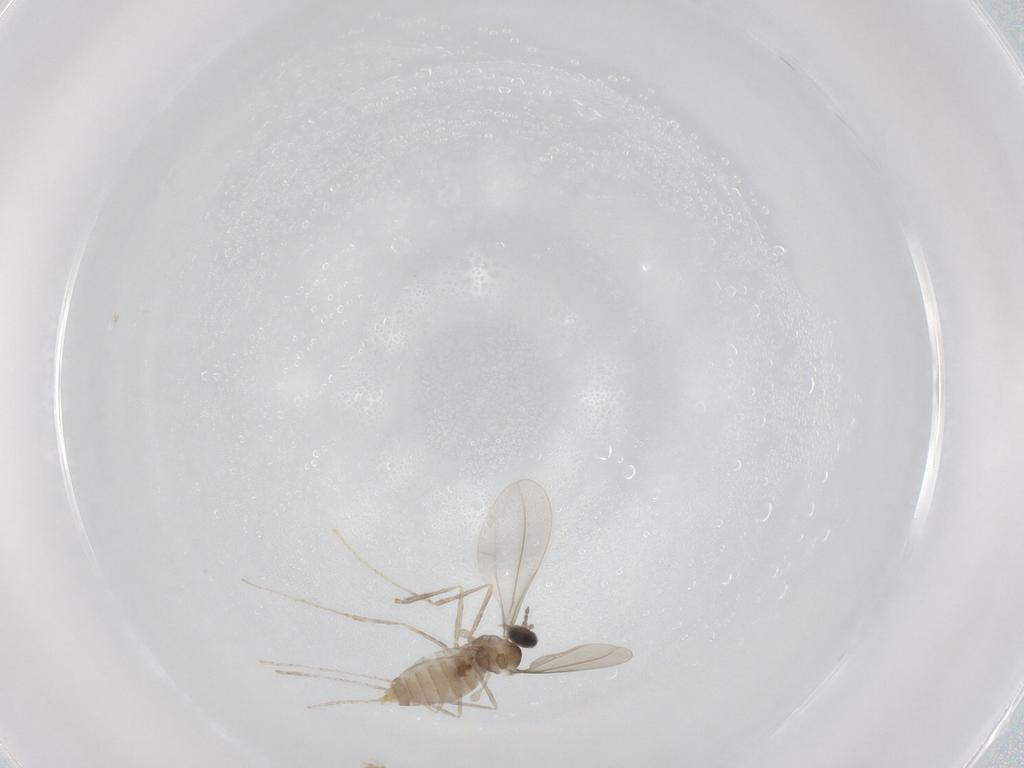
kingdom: Animalia
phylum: Arthropoda
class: Insecta
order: Diptera
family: Cecidomyiidae
